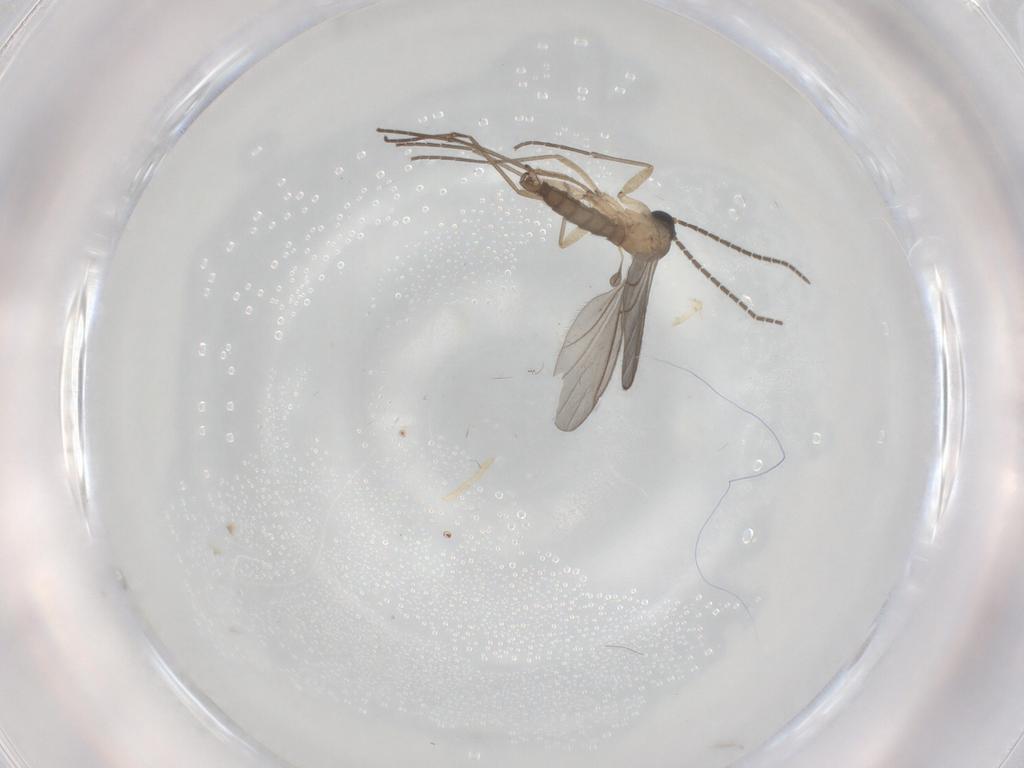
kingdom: Animalia
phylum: Arthropoda
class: Insecta
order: Diptera
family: Sciaridae
